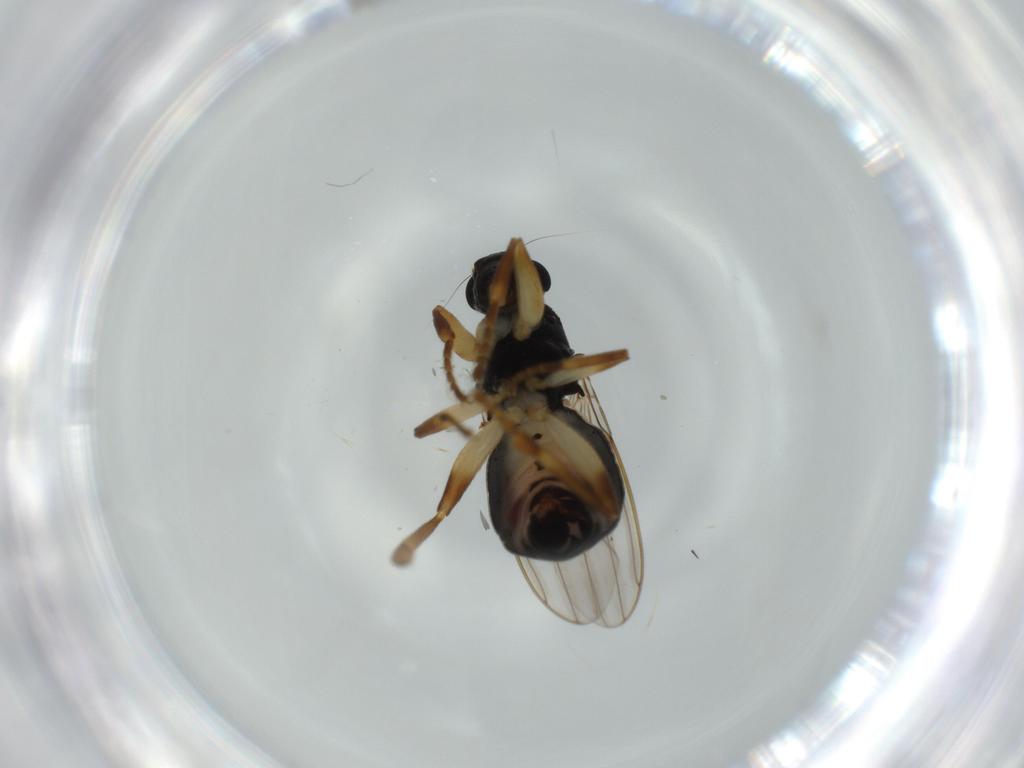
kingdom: Animalia
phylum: Arthropoda
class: Insecta
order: Diptera
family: Sphaeroceridae
